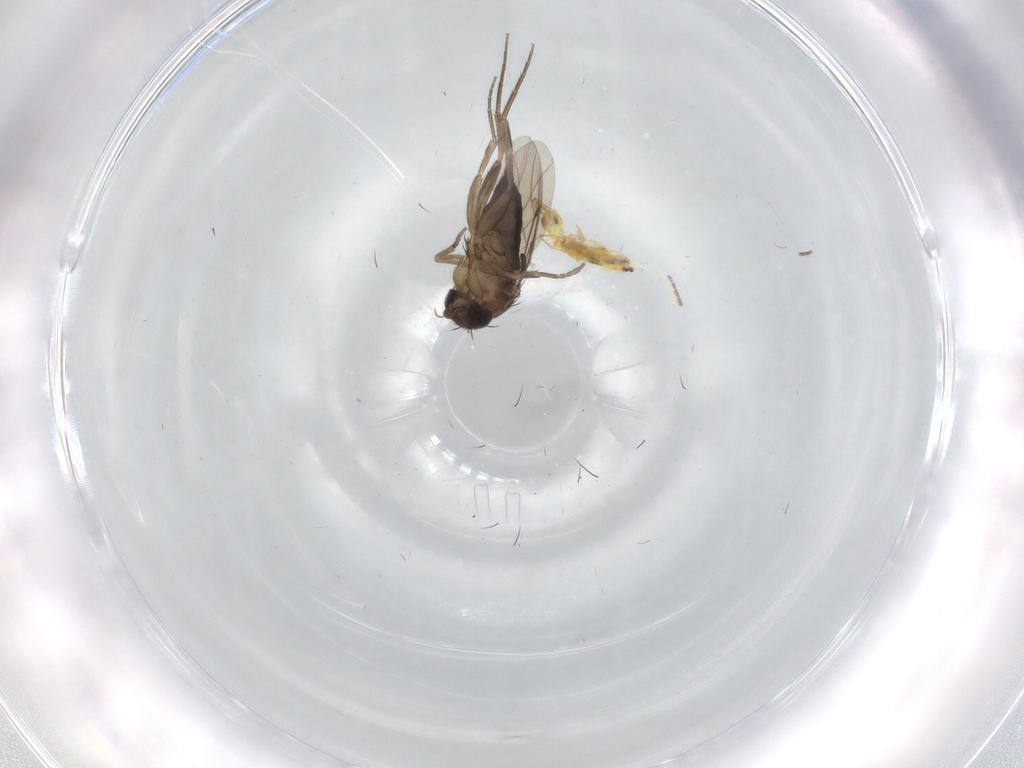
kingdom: Animalia
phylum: Arthropoda
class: Insecta
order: Diptera
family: Phoridae
